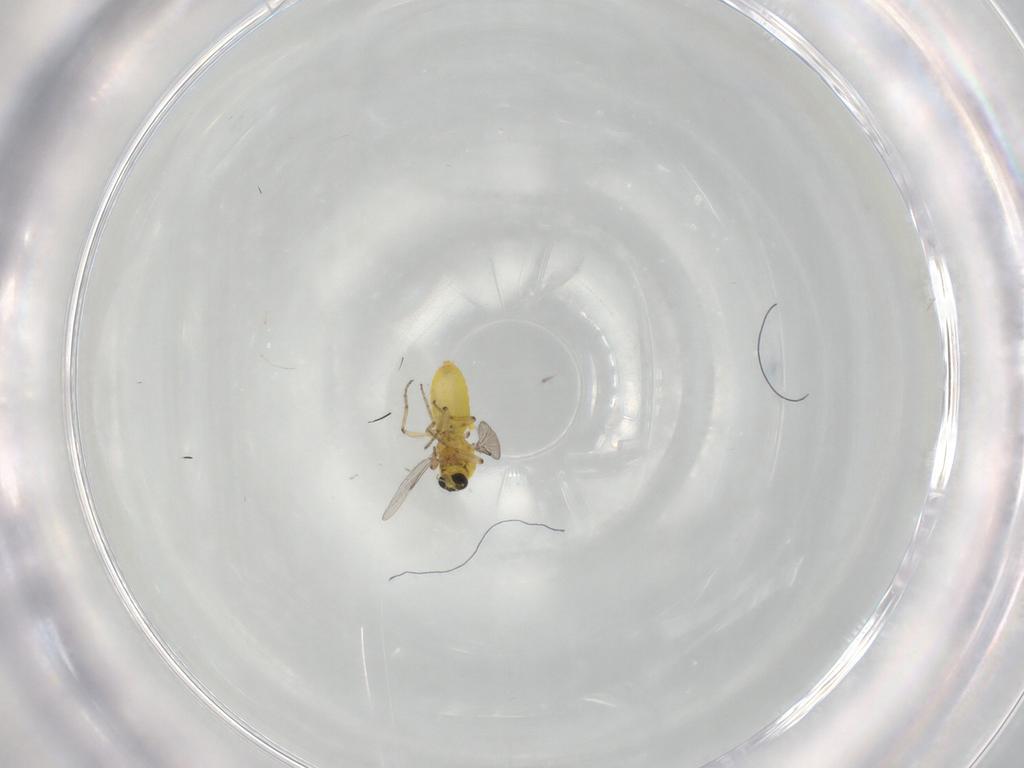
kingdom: Animalia
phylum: Arthropoda
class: Insecta
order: Diptera
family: Ceratopogonidae
